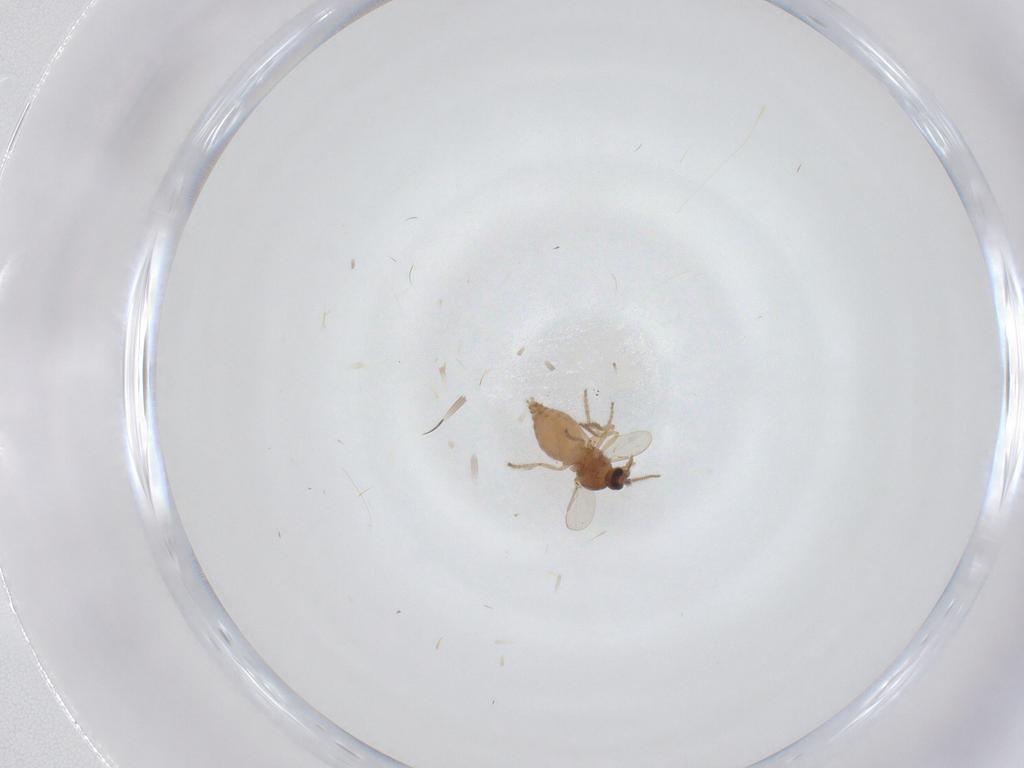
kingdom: Animalia
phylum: Arthropoda
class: Insecta
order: Diptera
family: Ceratopogonidae
